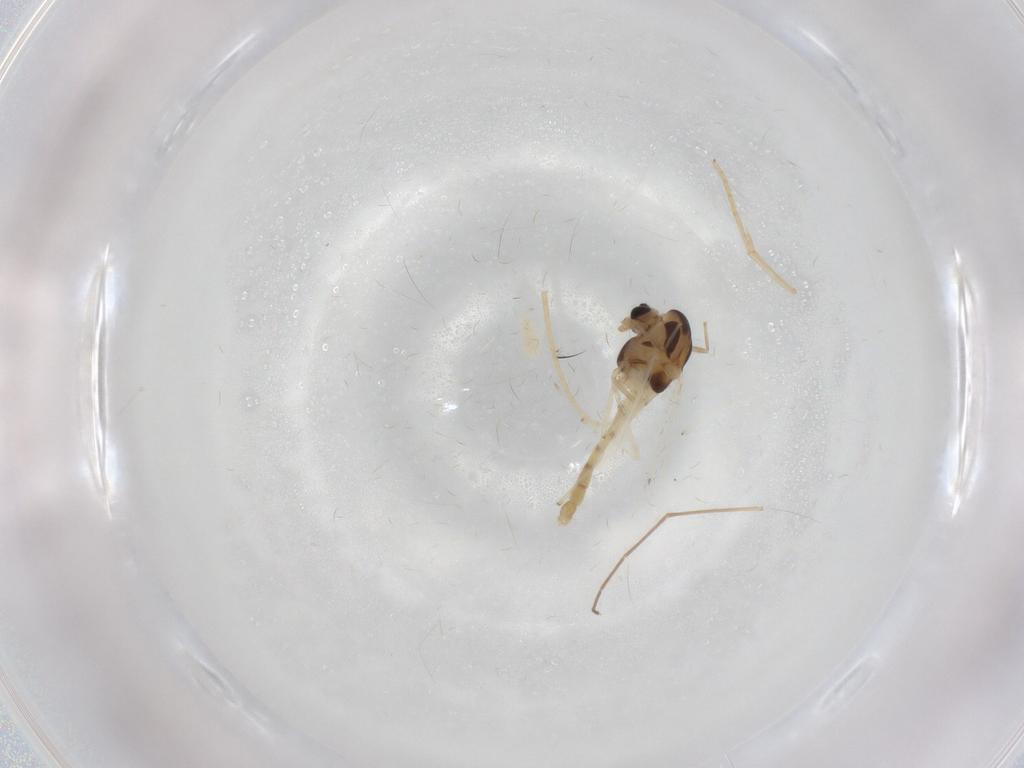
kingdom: Animalia
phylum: Arthropoda
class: Insecta
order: Diptera
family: Chironomidae
